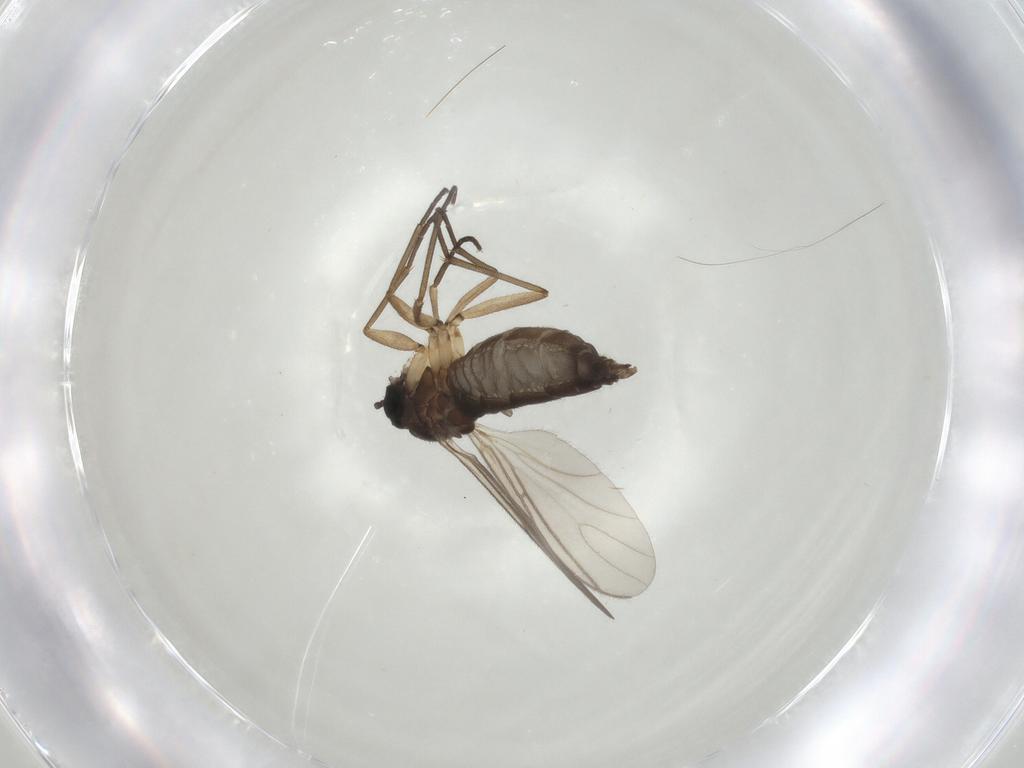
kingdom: Animalia
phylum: Arthropoda
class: Insecta
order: Diptera
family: Sciaridae
